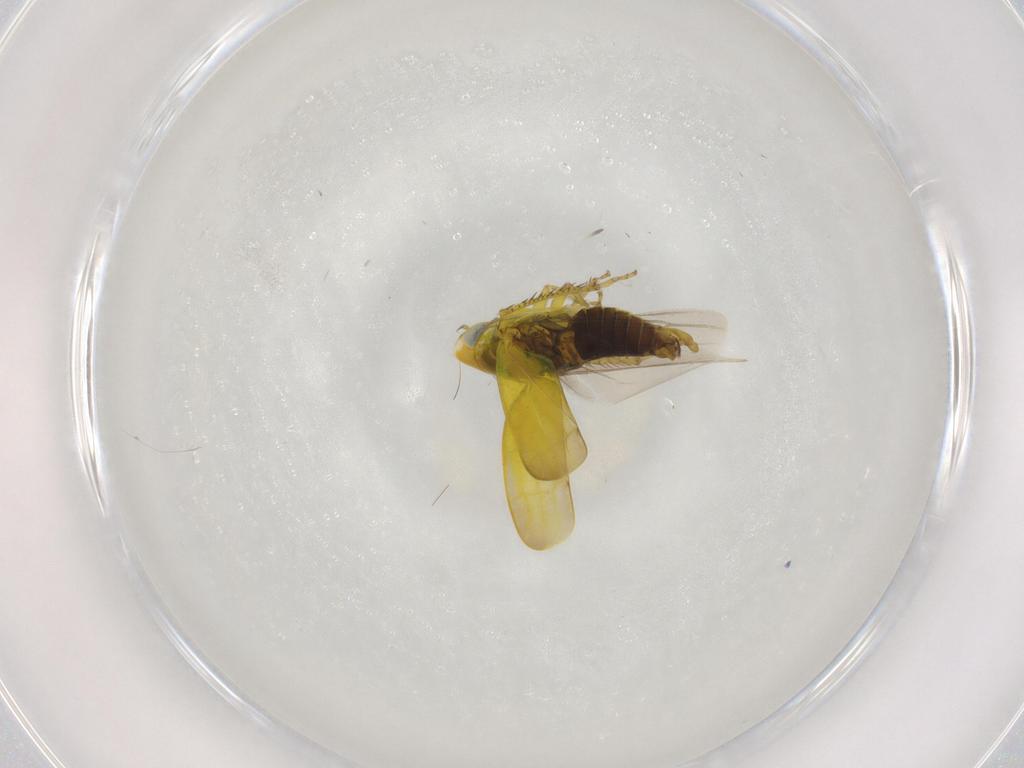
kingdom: Animalia
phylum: Arthropoda
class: Insecta
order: Hemiptera
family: Cicadellidae
